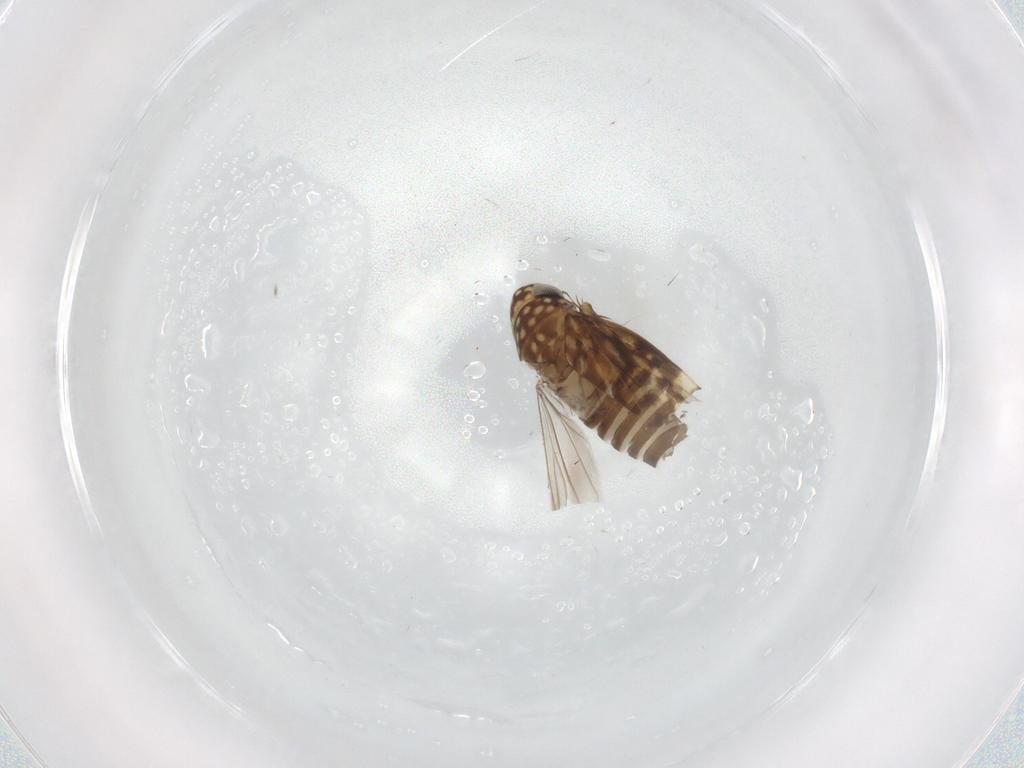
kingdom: Animalia
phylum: Arthropoda
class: Insecta
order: Hemiptera
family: Cicadellidae
